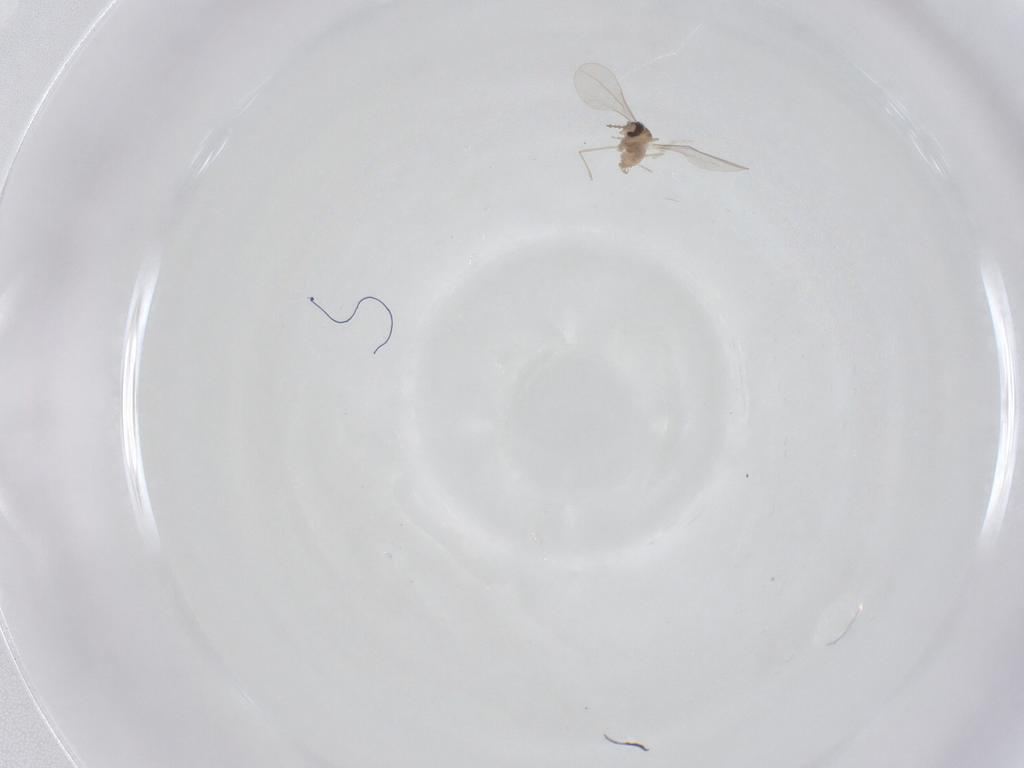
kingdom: Animalia
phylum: Arthropoda
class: Insecta
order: Diptera
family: Cecidomyiidae
